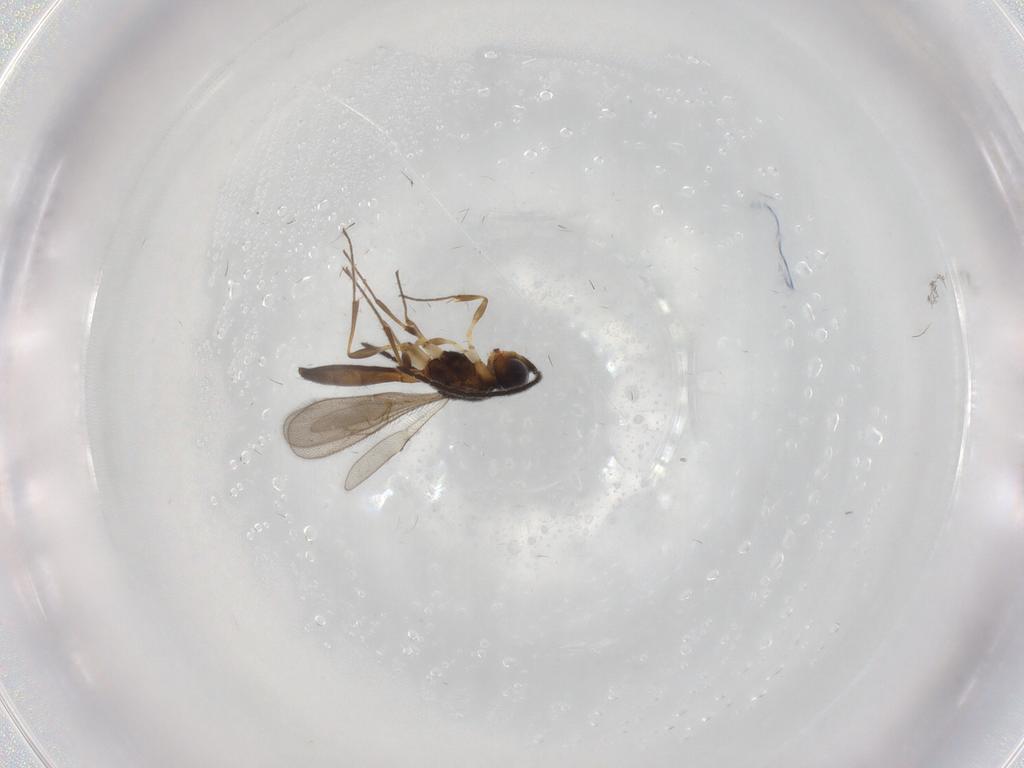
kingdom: Animalia
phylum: Arthropoda
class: Insecta
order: Hymenoptera
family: Scelionidae
